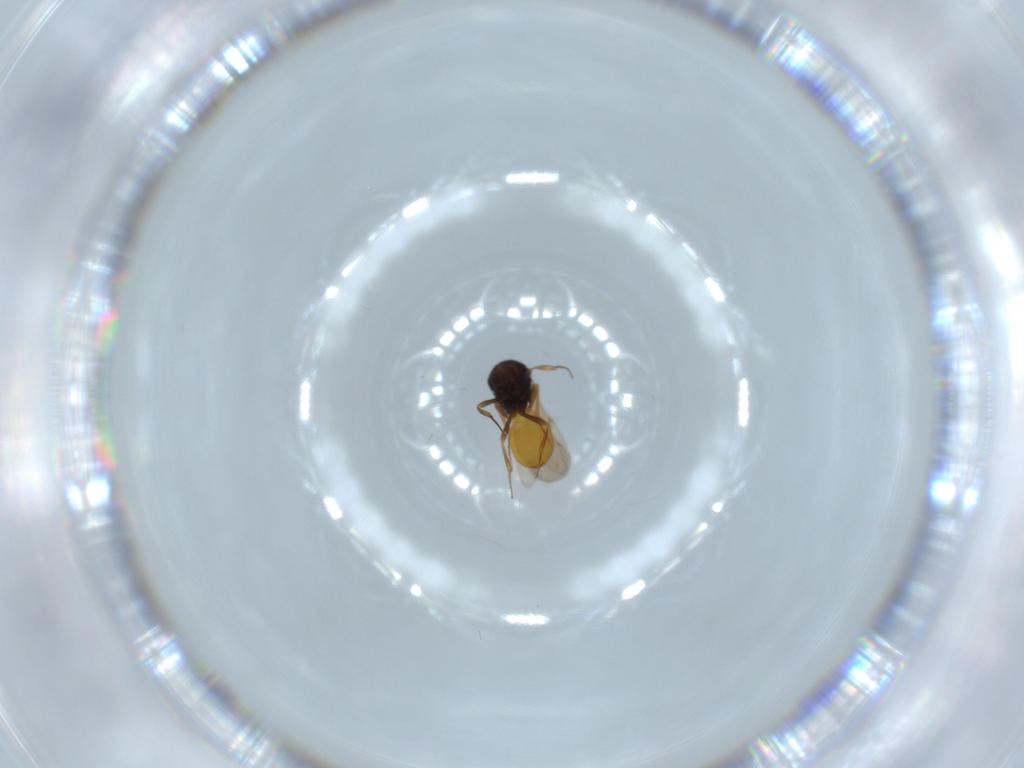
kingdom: Animalia
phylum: Arthropoda
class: Insecta
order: Hymenoptera
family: Scelionidae
